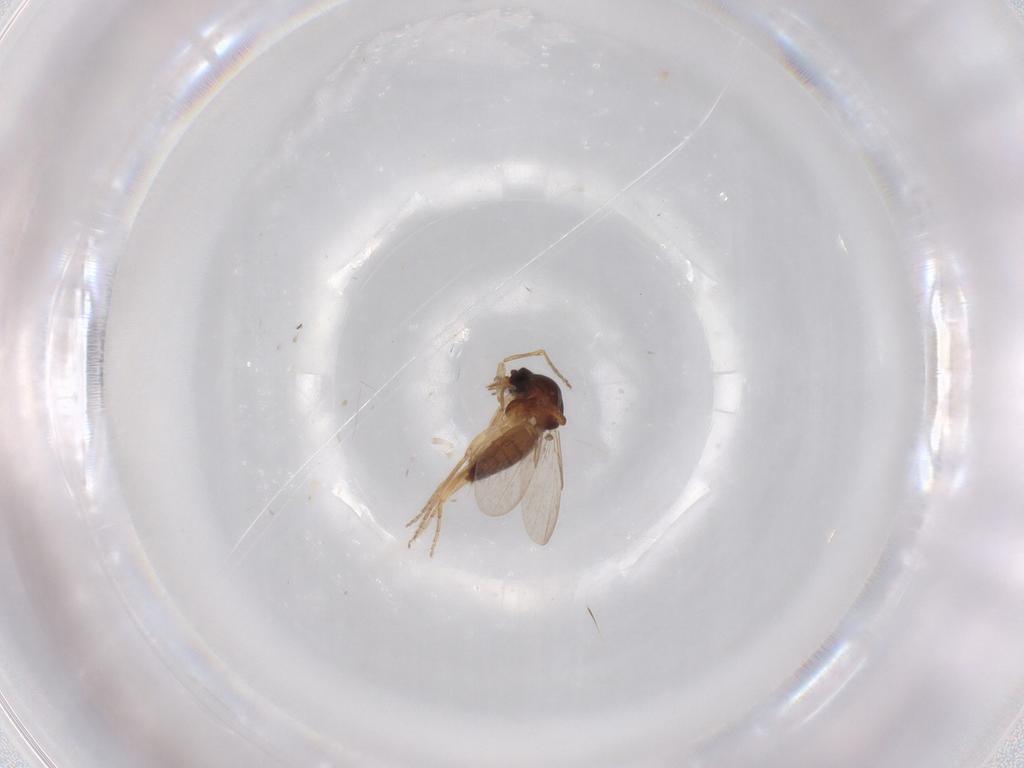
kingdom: Animalia
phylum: Arthropoda
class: Insecta
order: Diptera
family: Ceratopogonidae
